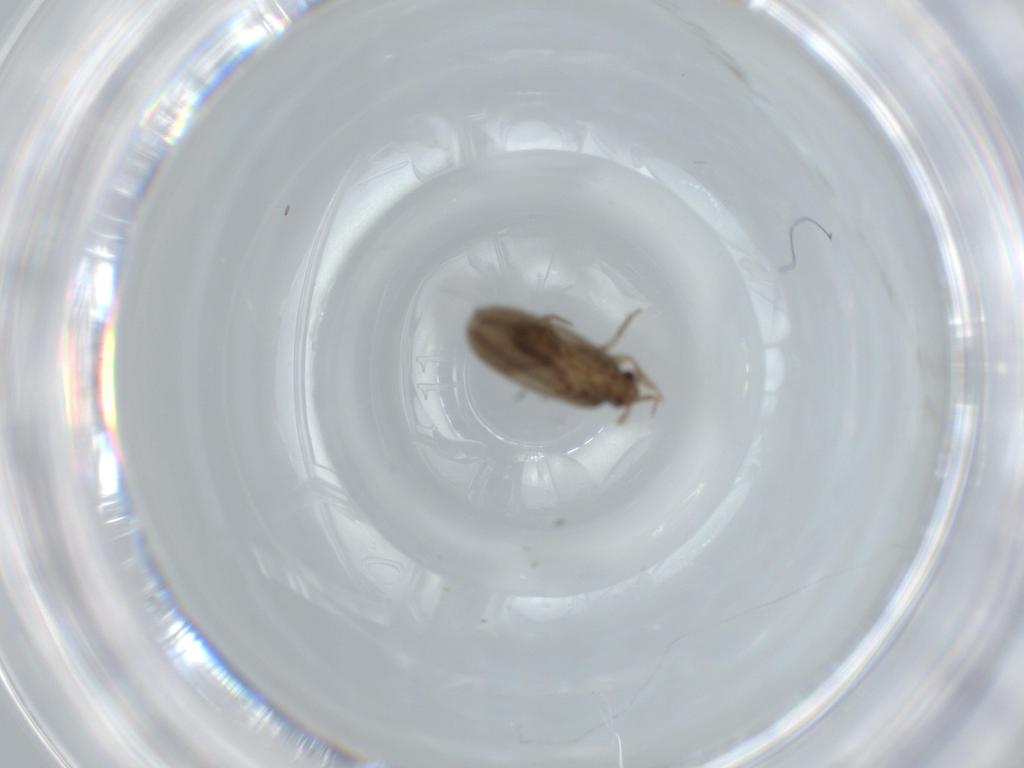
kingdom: Animalia
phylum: Arthropoda
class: Insecta
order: Hemiptera
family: Ceratocombidae
